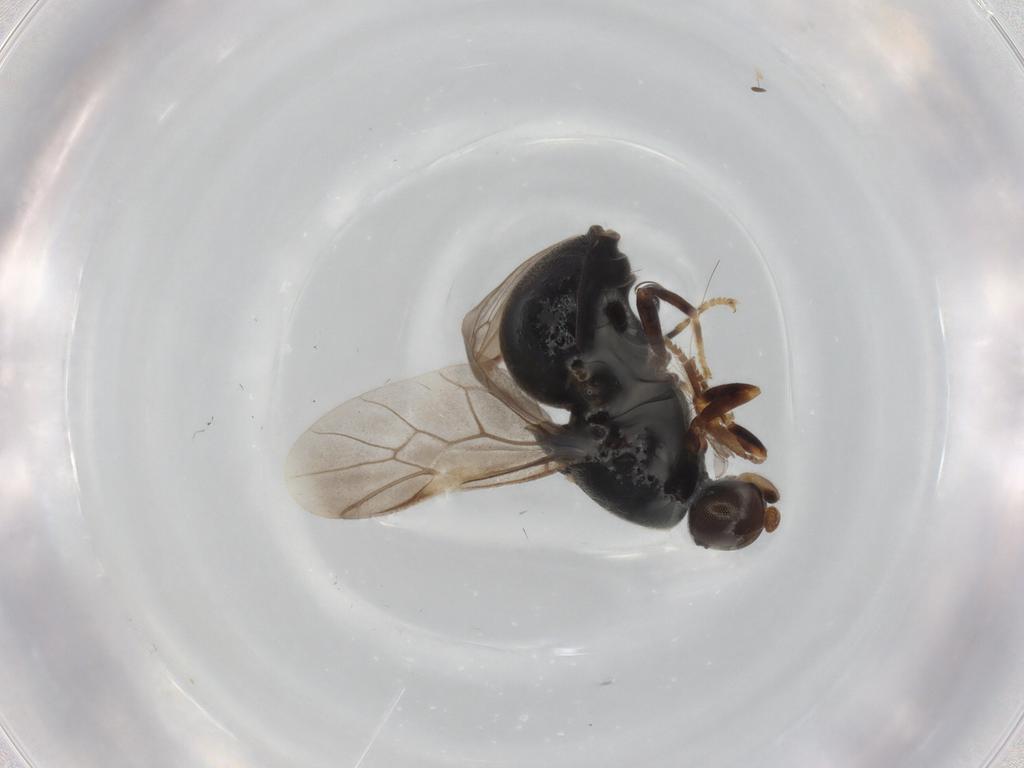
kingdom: Animalia
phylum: Arthropoda
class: Insecta
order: Diptera
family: Stratiomyidae
